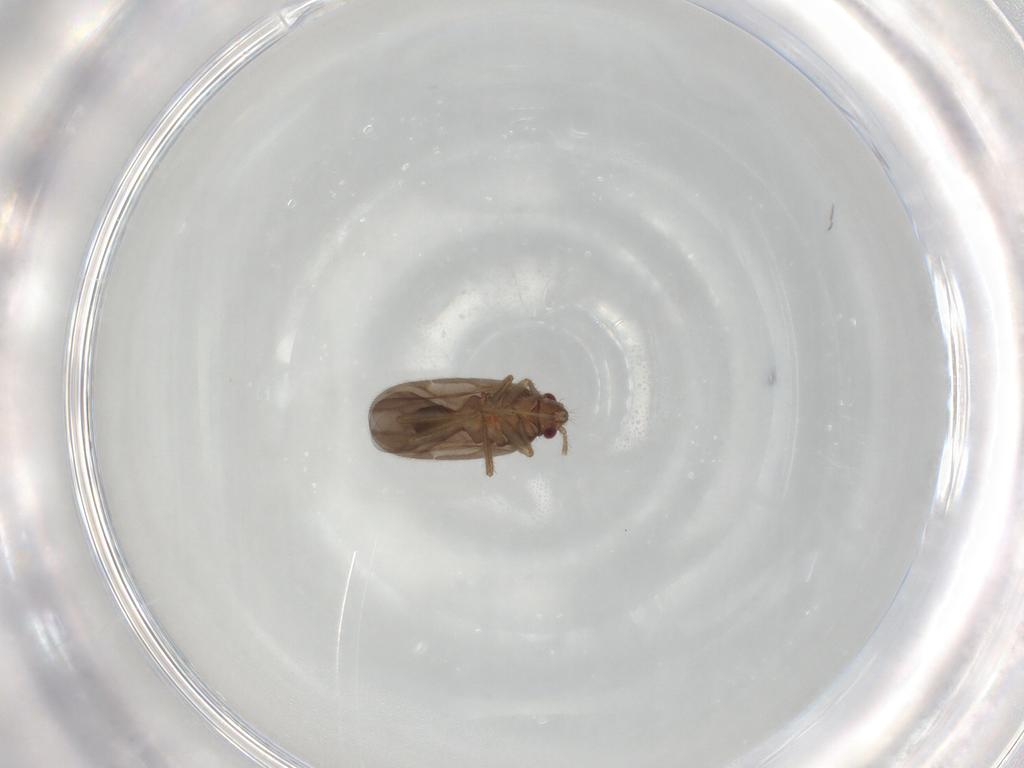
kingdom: Animalia
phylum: Arthropoda
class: Insecta
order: Hemiptera
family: Ceratocombidae
